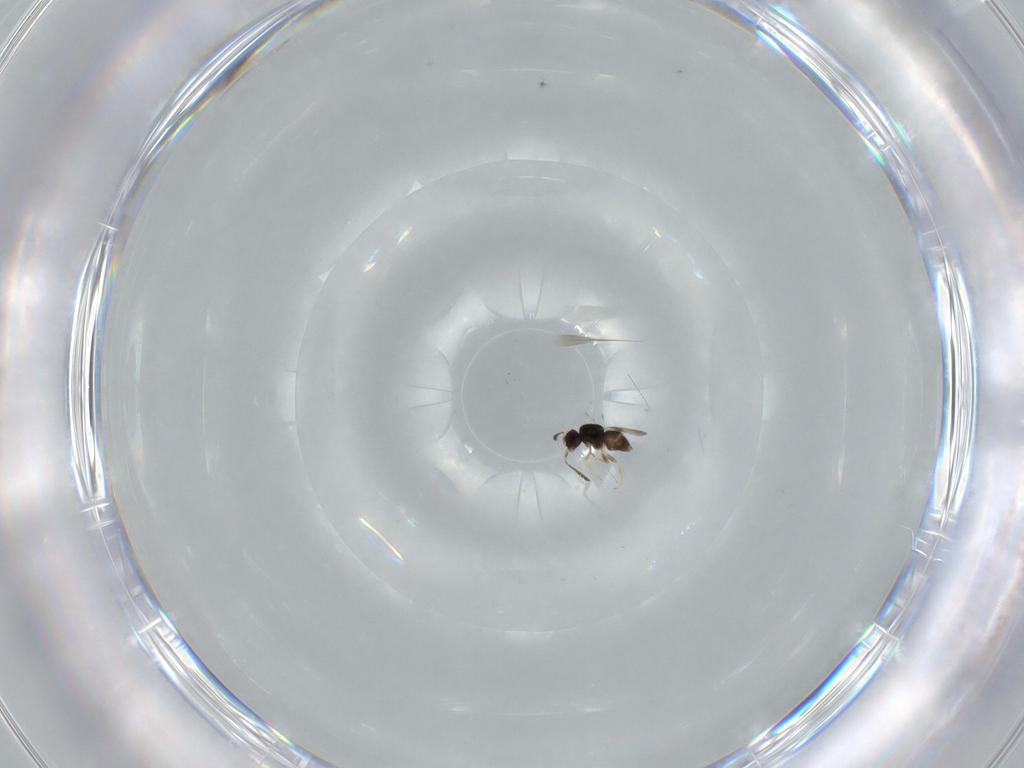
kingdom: Animalia
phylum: Arthropoda
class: Insecta
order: Hymenoptera
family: Ceraphronidae
